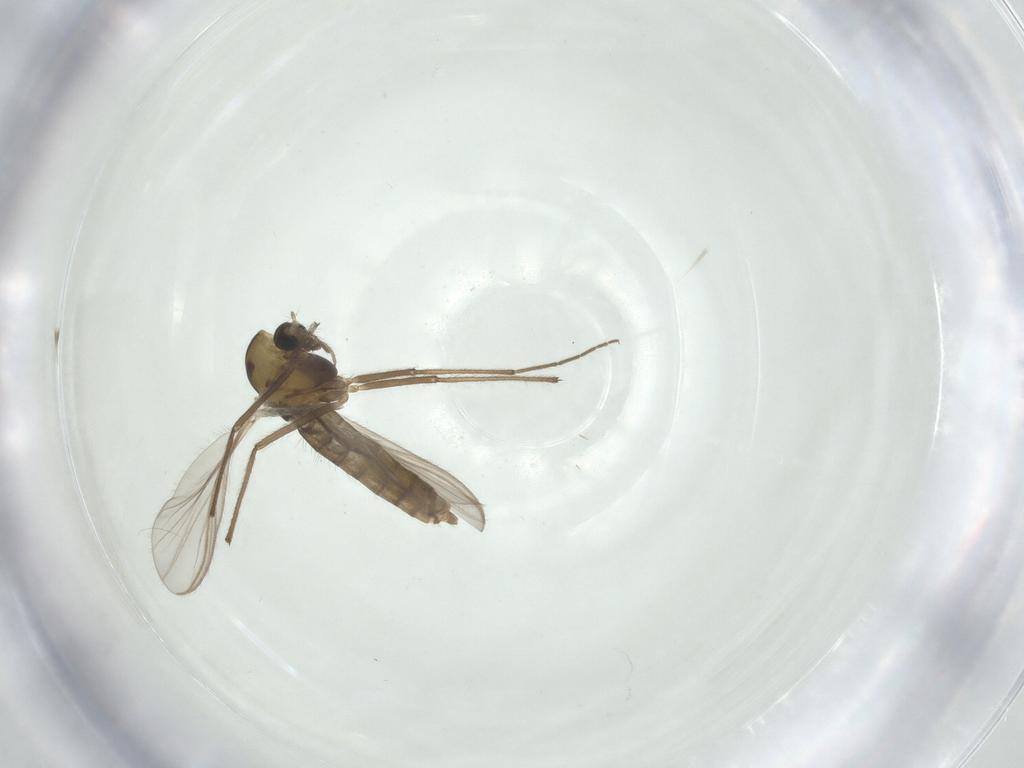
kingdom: Animalia
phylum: Arthropoda
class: Insecta
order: Diptera
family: Chironomidae
